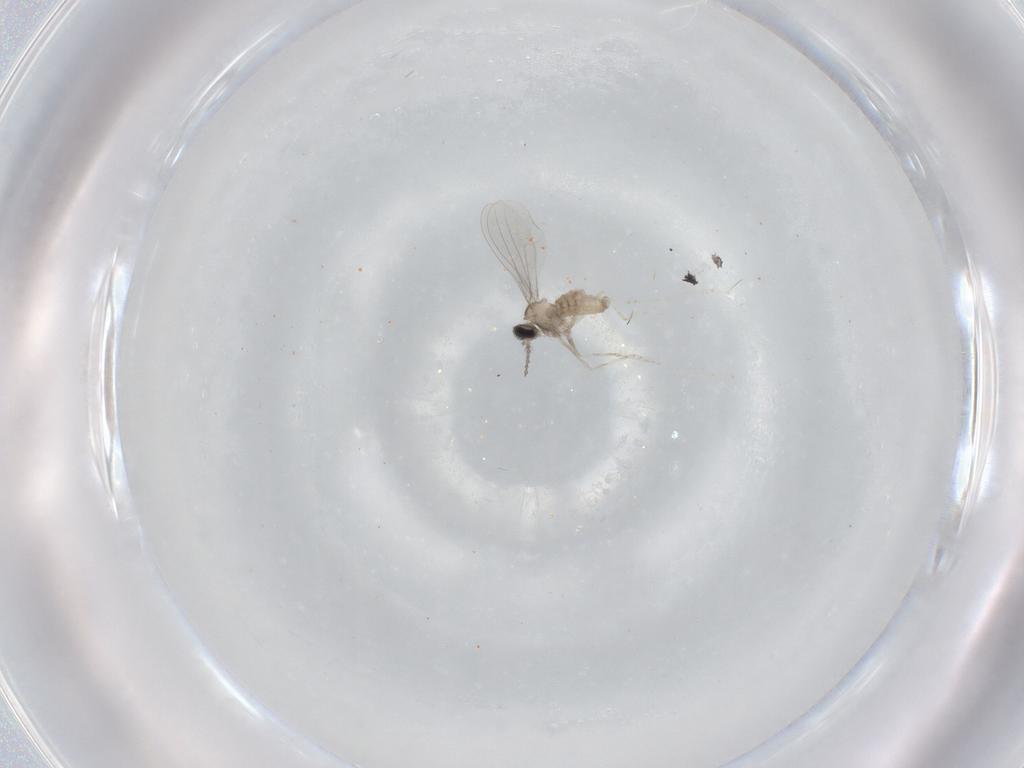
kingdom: Animalia
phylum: Arthropoda
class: Insecta
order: Diptera
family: Cecidomyiidae
